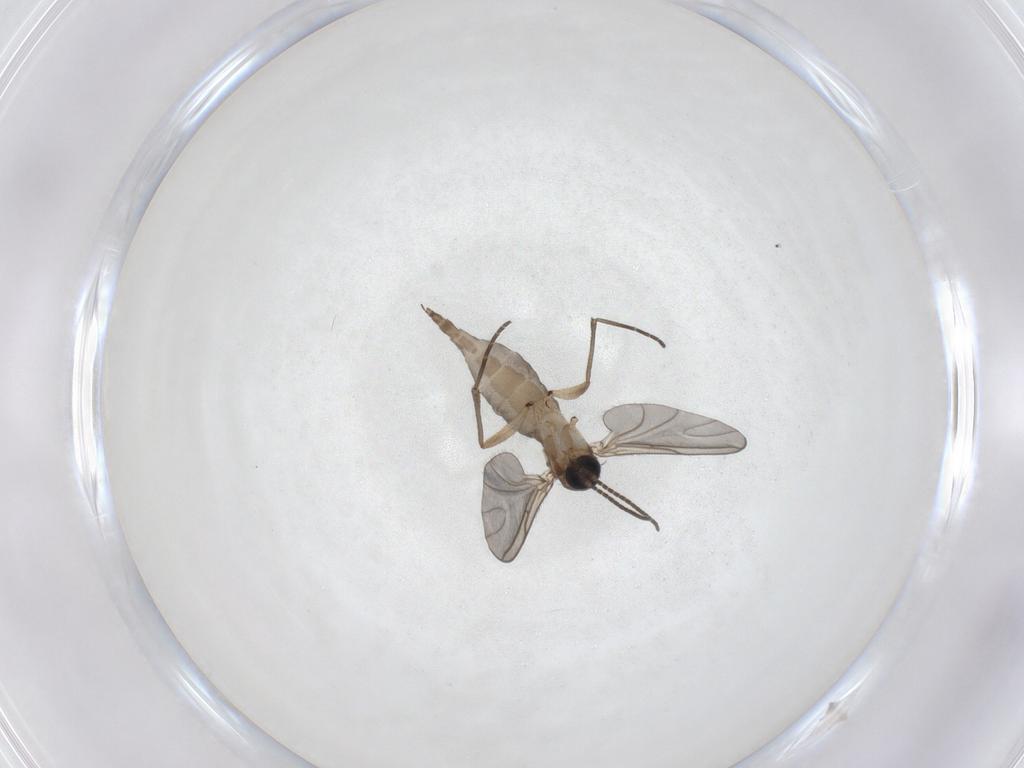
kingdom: Animalia
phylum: Arthropoda
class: Insecta
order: Diptera
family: Sciaridae
